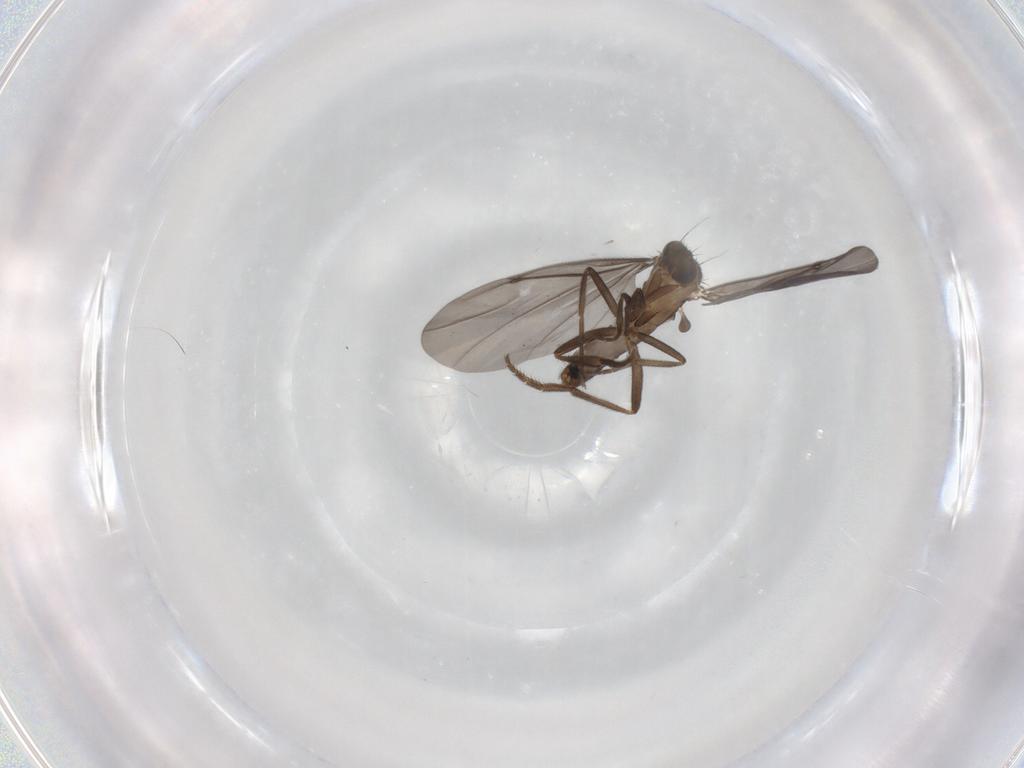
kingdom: Animalia
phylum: Arthropoda
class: Insecta
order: Diptera
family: Phoridae
